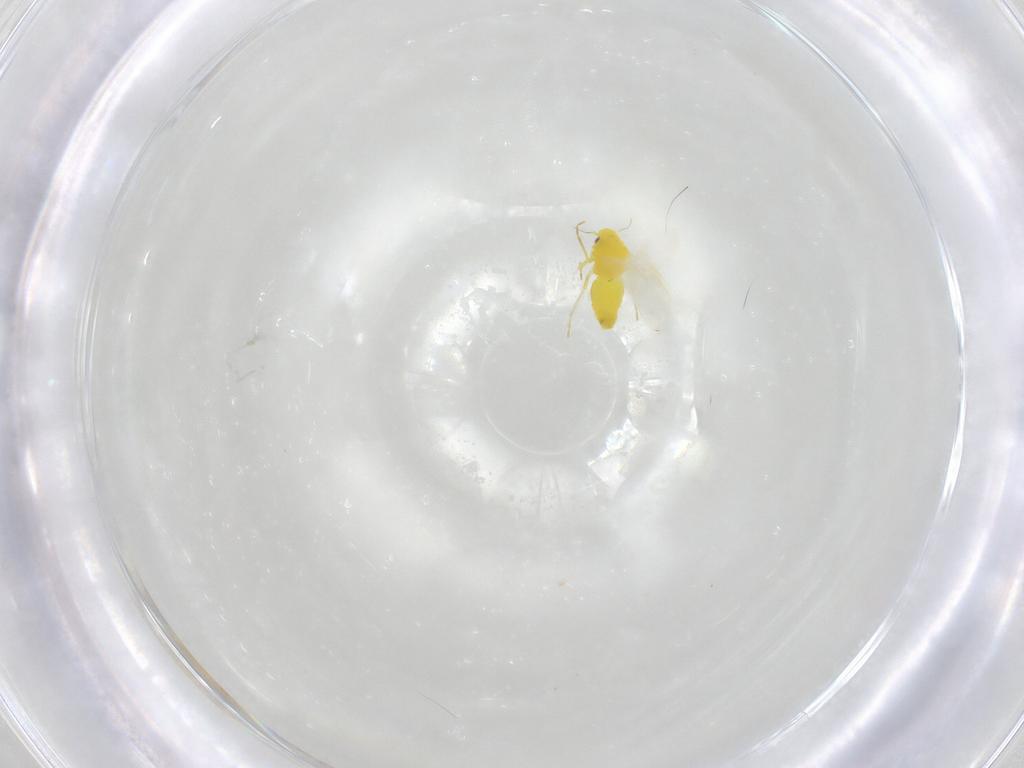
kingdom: Animalia
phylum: Arthropoda
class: Insecta
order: Hemiptera
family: Aleyrodidae
